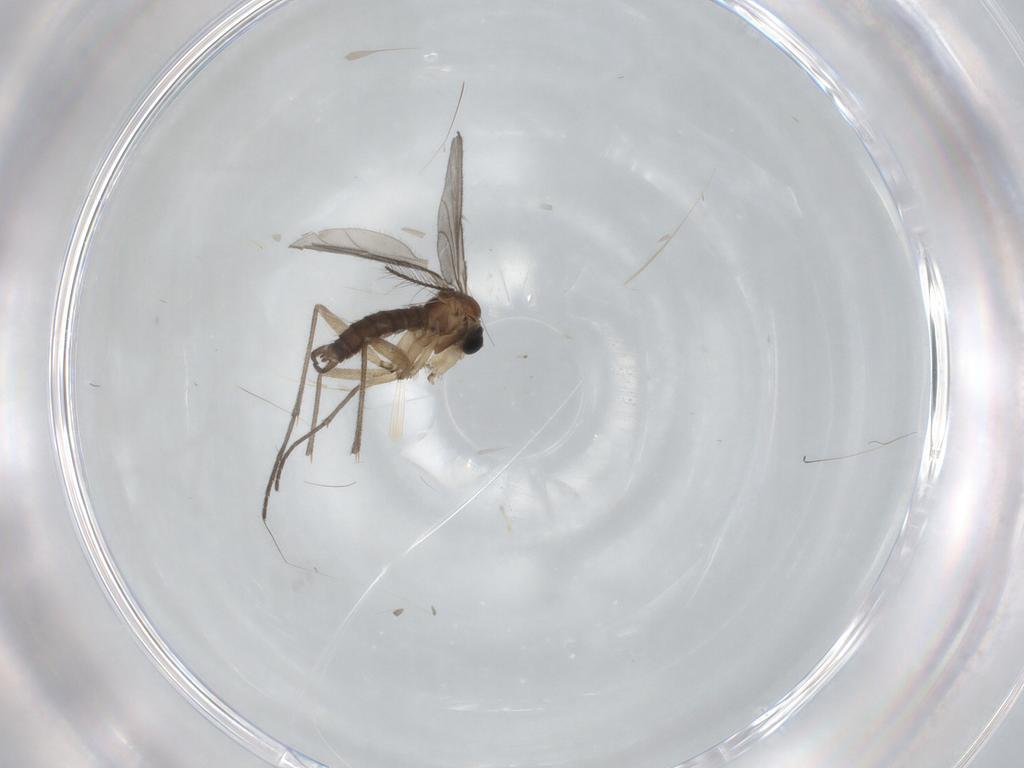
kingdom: Animalia
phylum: Arthropoda
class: Insecta
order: Diptera
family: Sciaridae
